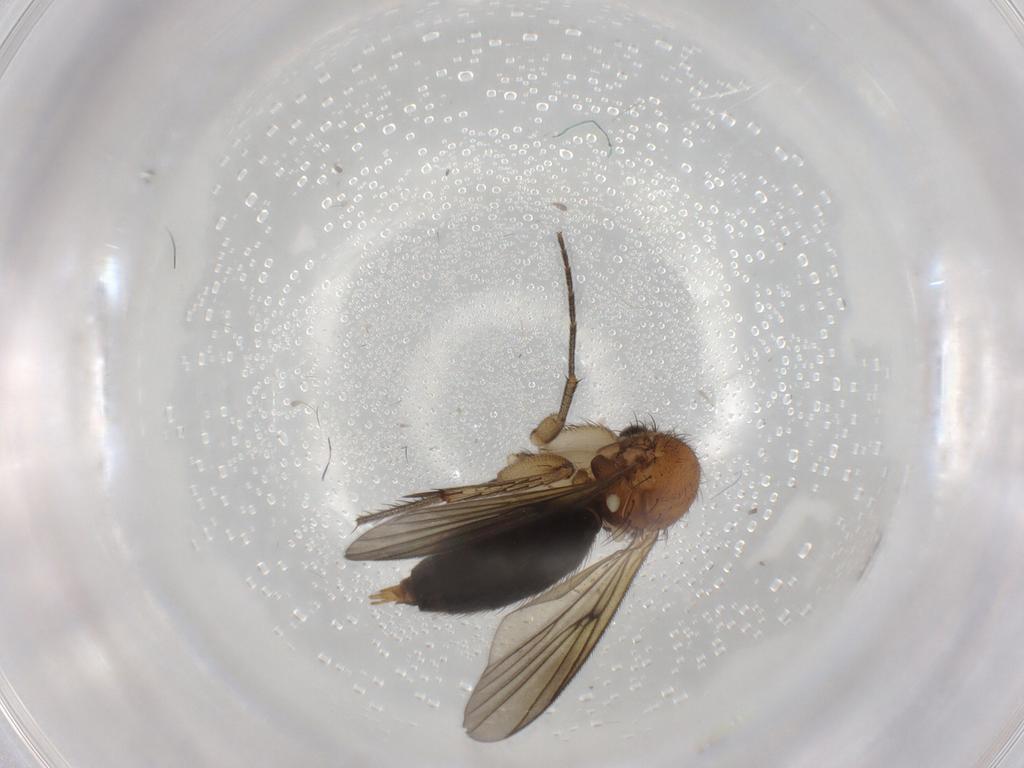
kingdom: Animalia
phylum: Arthropoda
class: Insecta
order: Diptera
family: Mycetophilidae
